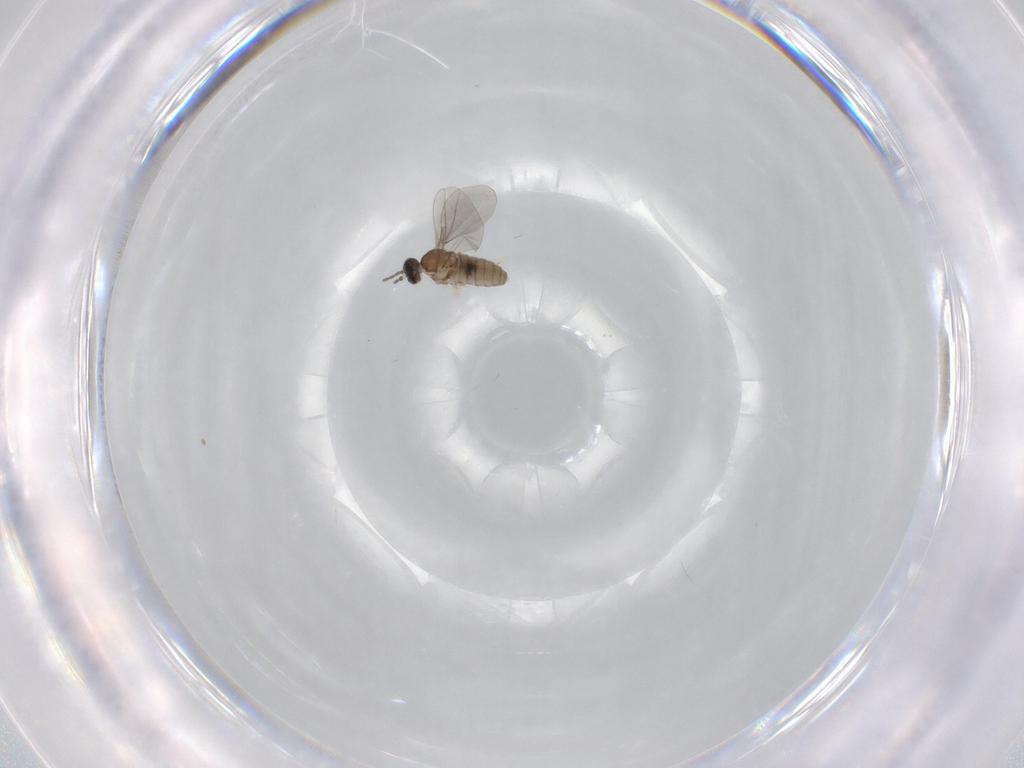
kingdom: Animalia
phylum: Arthropoda
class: Insecta
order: Diptera
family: Cecidomyiidae
